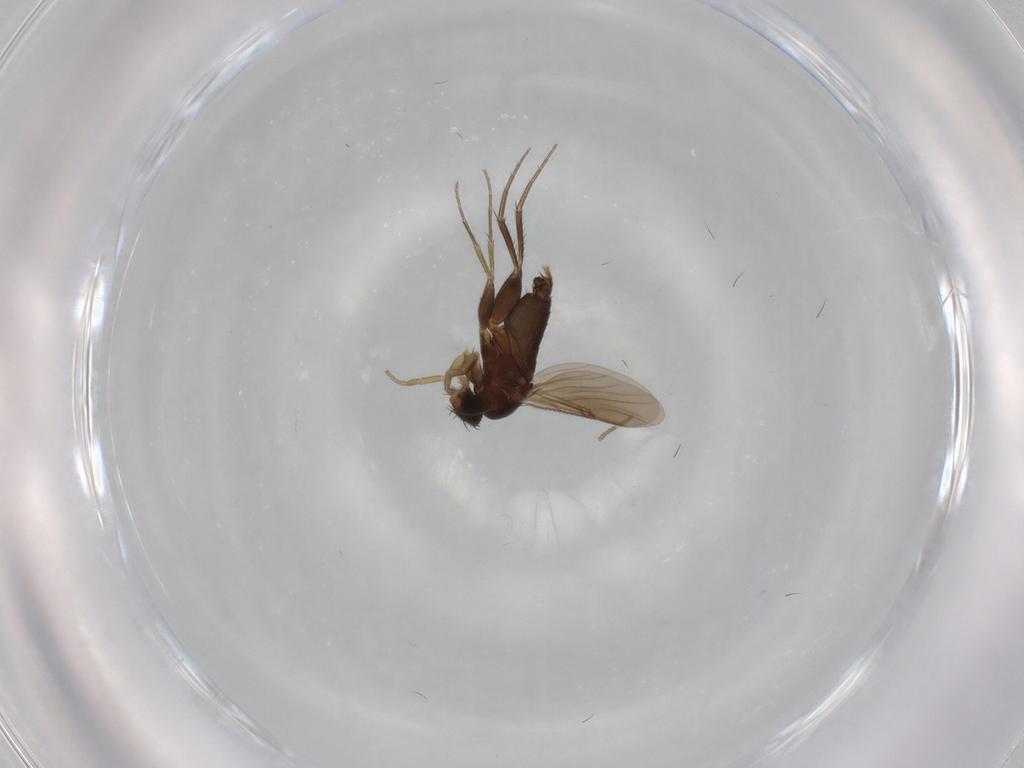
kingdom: Animalia
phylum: Arthropoda
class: Insecta
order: Diptera
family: Phoridae
